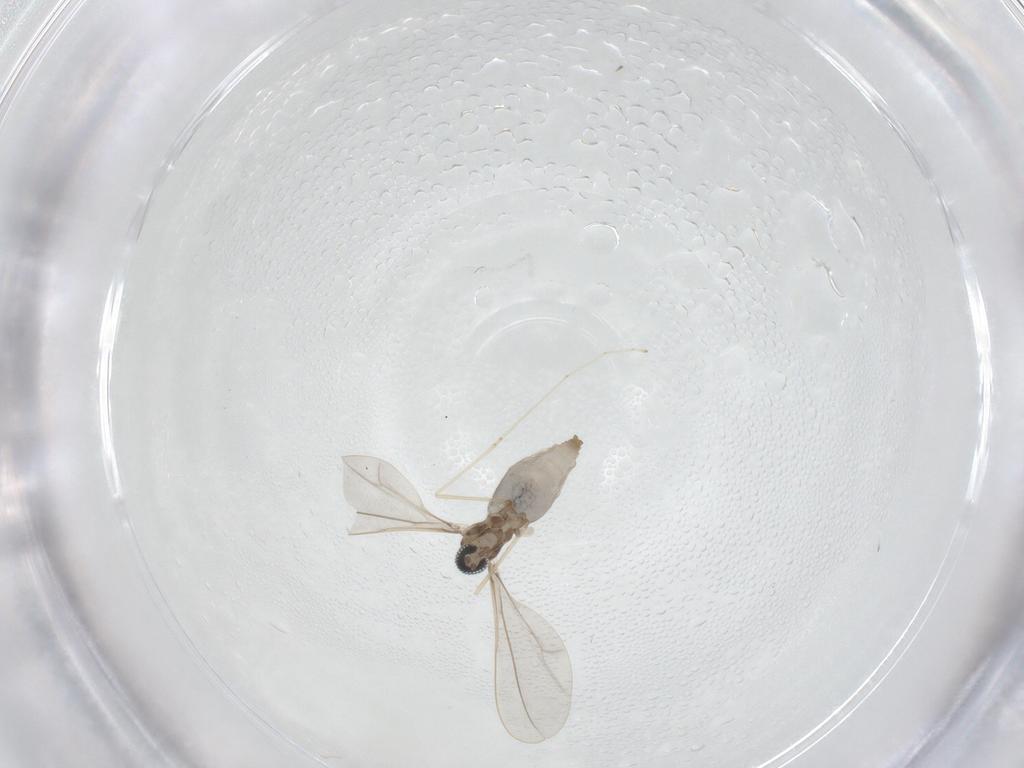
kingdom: Animalia
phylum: Arthropoda
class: Insecta
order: Diptera
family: Cecidomyiidae
